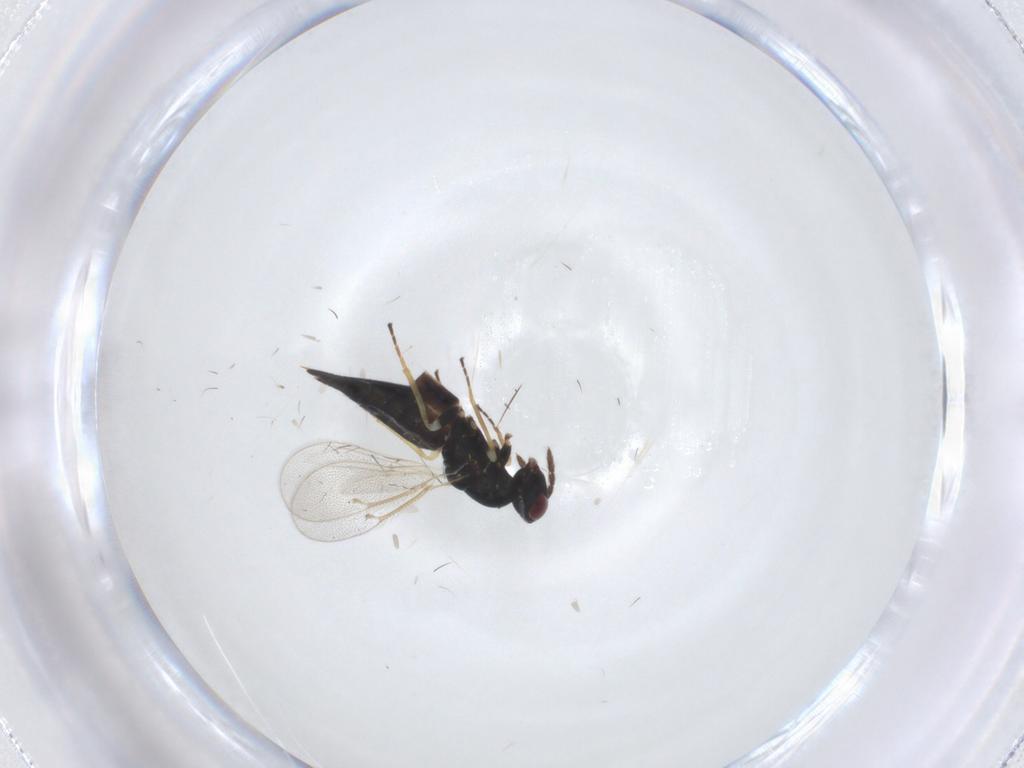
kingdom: Animalia
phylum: Arthropoda
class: Insecta
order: Hymenoptera
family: Eulophidae
